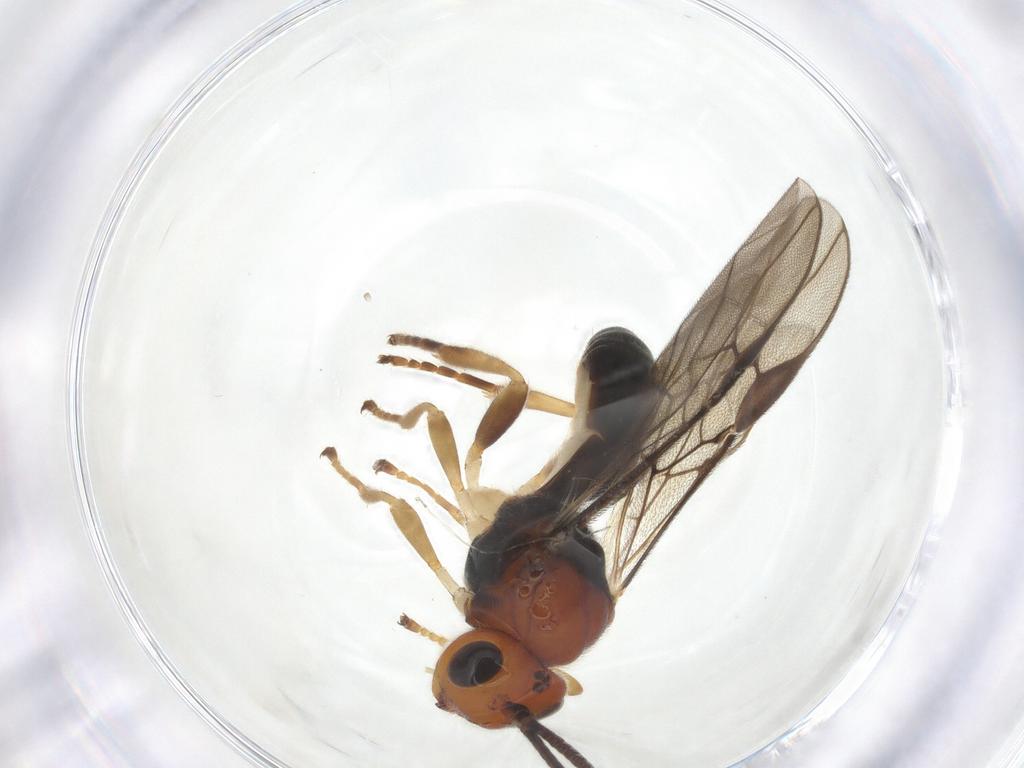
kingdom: Animalia
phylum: Arthropoda
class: Insecta
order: Hymenoptera
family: Braconidae
